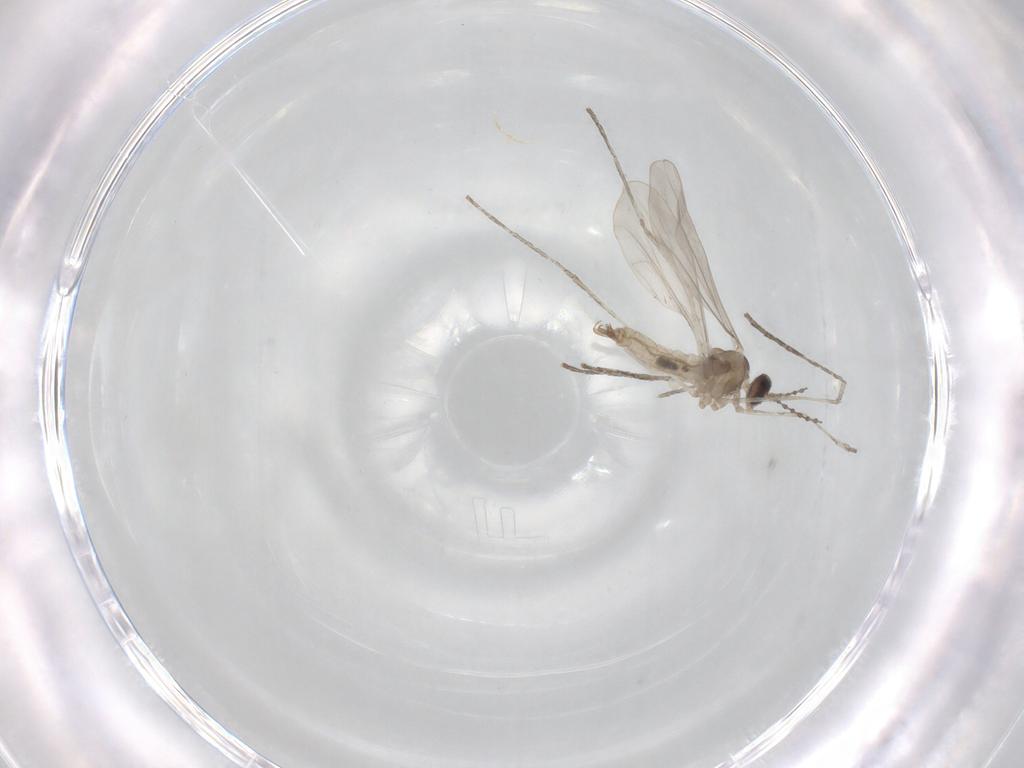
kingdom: Animalia
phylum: Arthropoda
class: Insecta
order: Diptera
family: Cecidomyiidae
